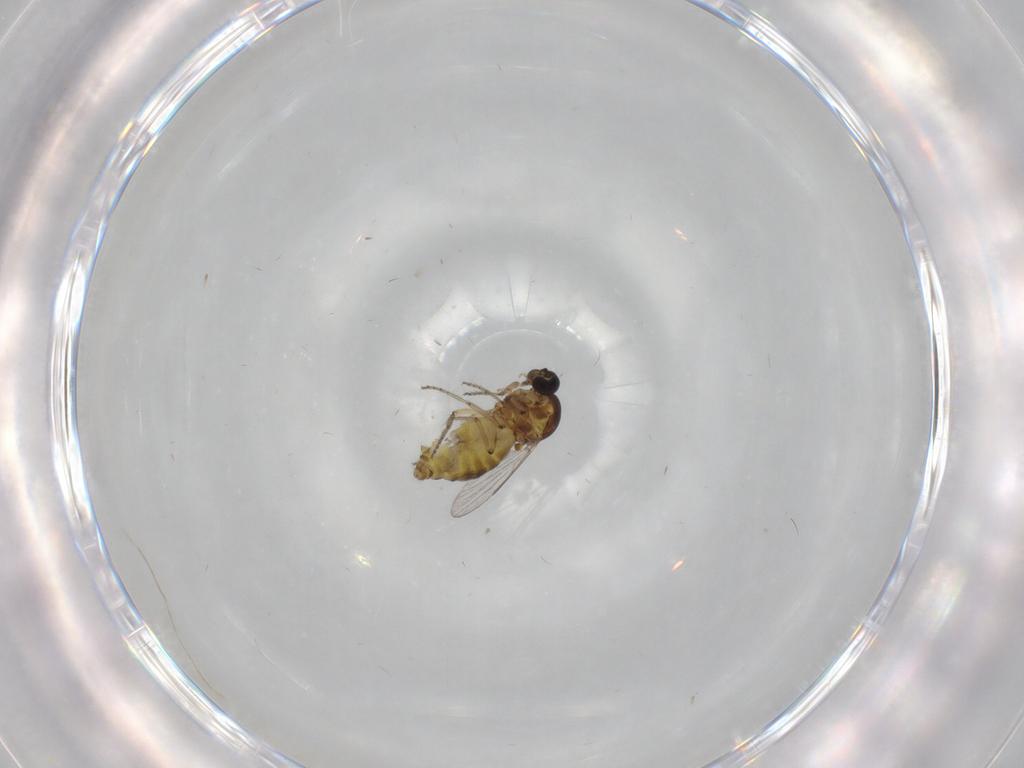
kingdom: Animalia
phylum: Arthropoda
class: Insecta
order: Diptera
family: Ceratopogonidae
